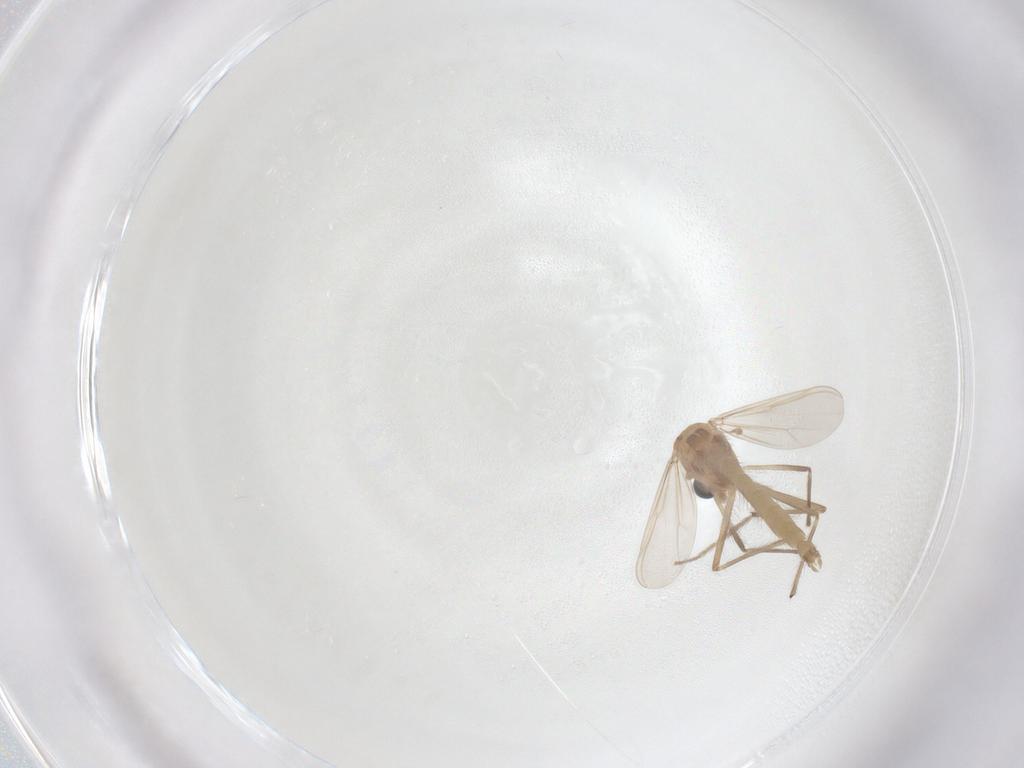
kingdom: Animalia
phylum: Arthropoda
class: Insecta
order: Diptera
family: Chironomidae
